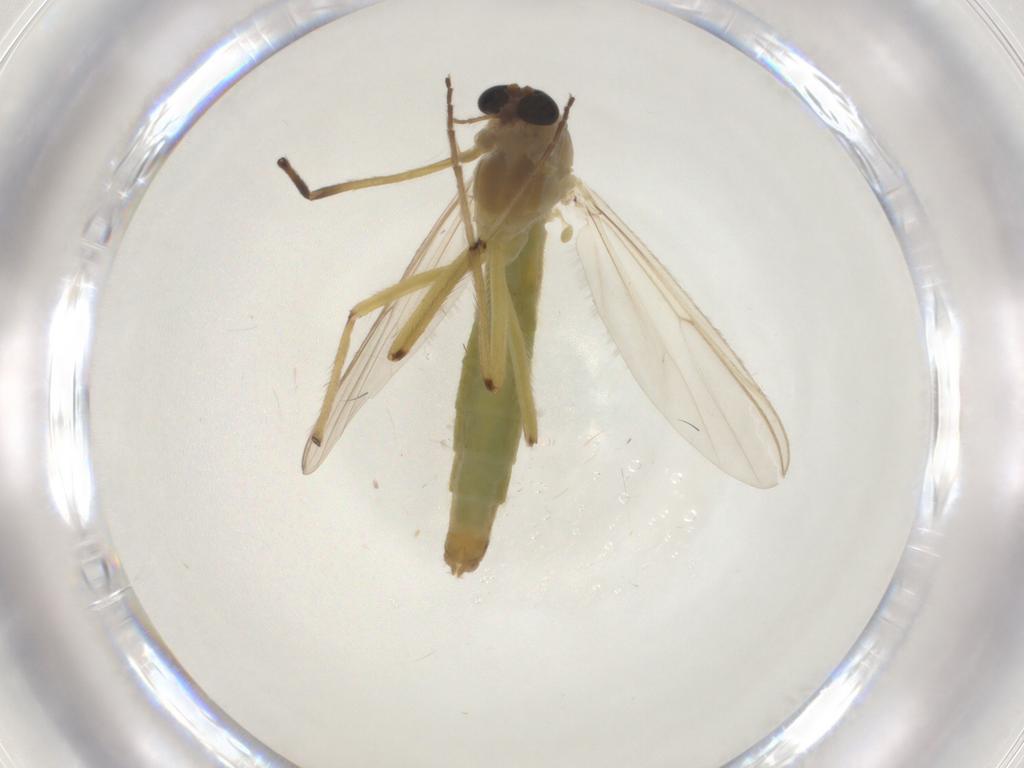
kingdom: Animalia
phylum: Arthropoda
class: Insecta
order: Diptera
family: Chironomidae
